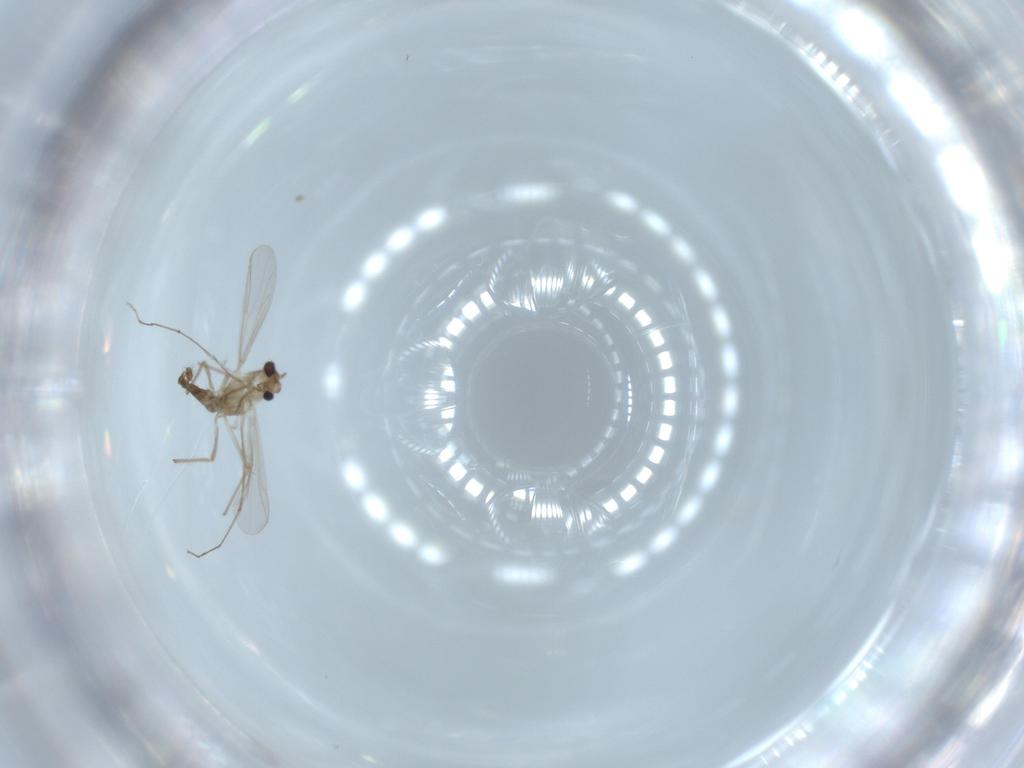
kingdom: Animalia
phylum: Arthropoda
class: Insecta
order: Diptera
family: Chironomidae
